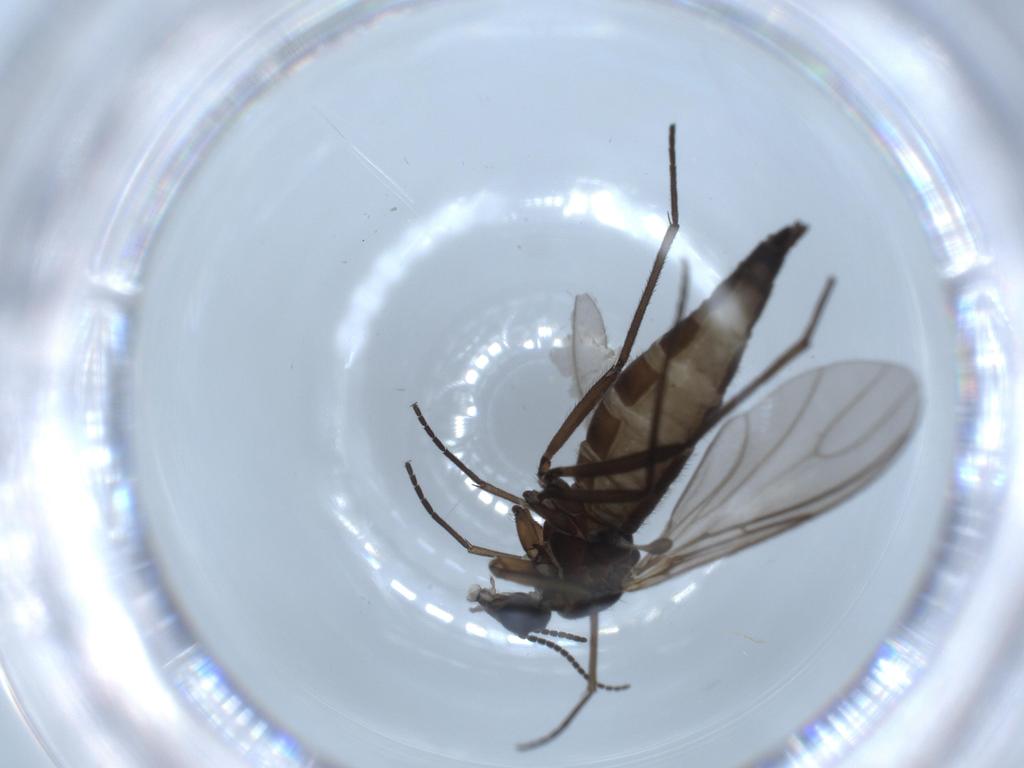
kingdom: Animalia
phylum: Arthropoda
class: Insecta
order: Diptera
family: Sciaridae
